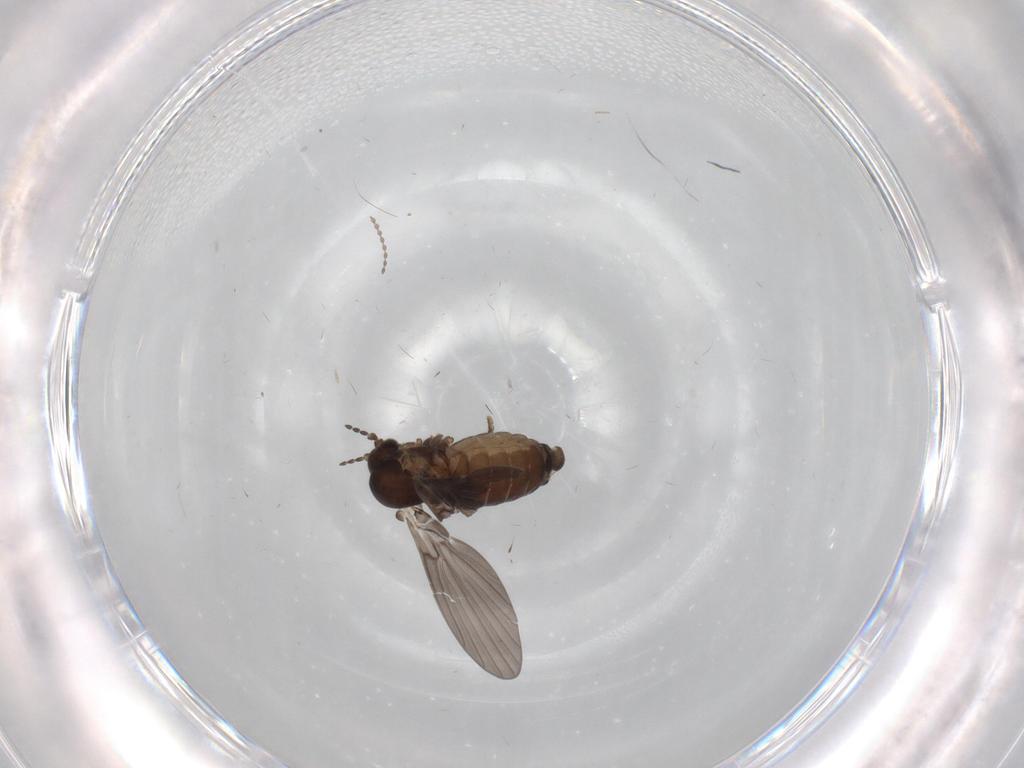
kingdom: Animalia
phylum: Arthropoda
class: Insecta
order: Diptera
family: Psychodidae
